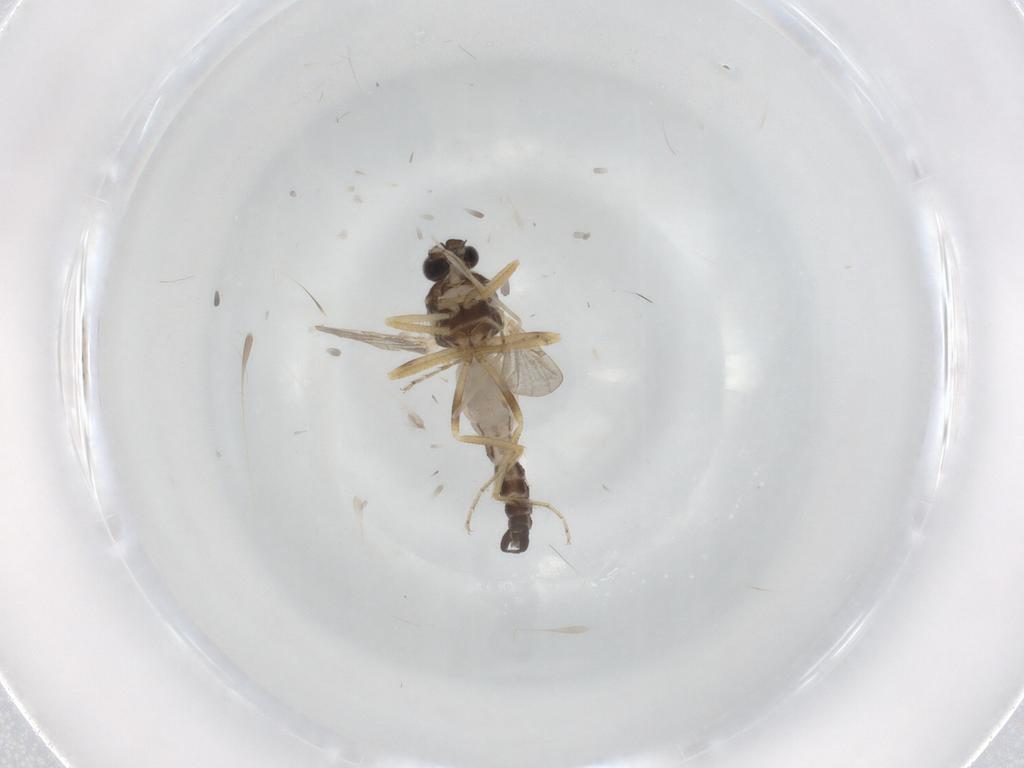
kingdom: Animalia
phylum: Arthropoda
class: Insecta
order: Diptera
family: Ceratopogonidae
